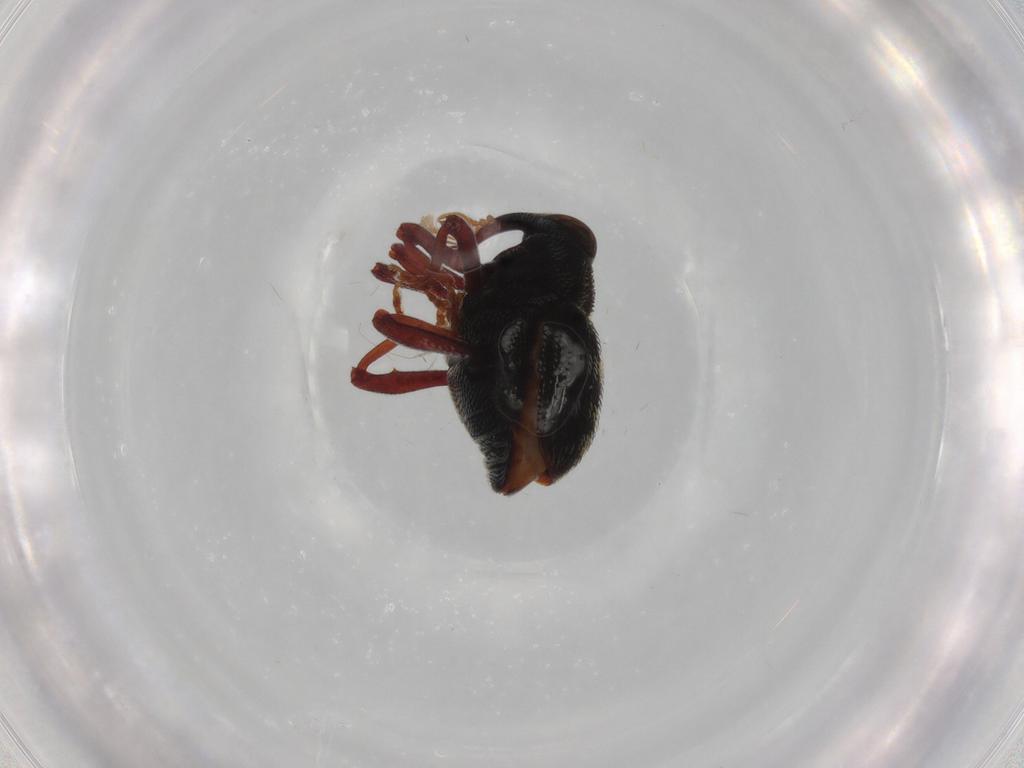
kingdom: Animalia
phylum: Arthropoda
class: Insecta
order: Coleoptera
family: Curculionidae
